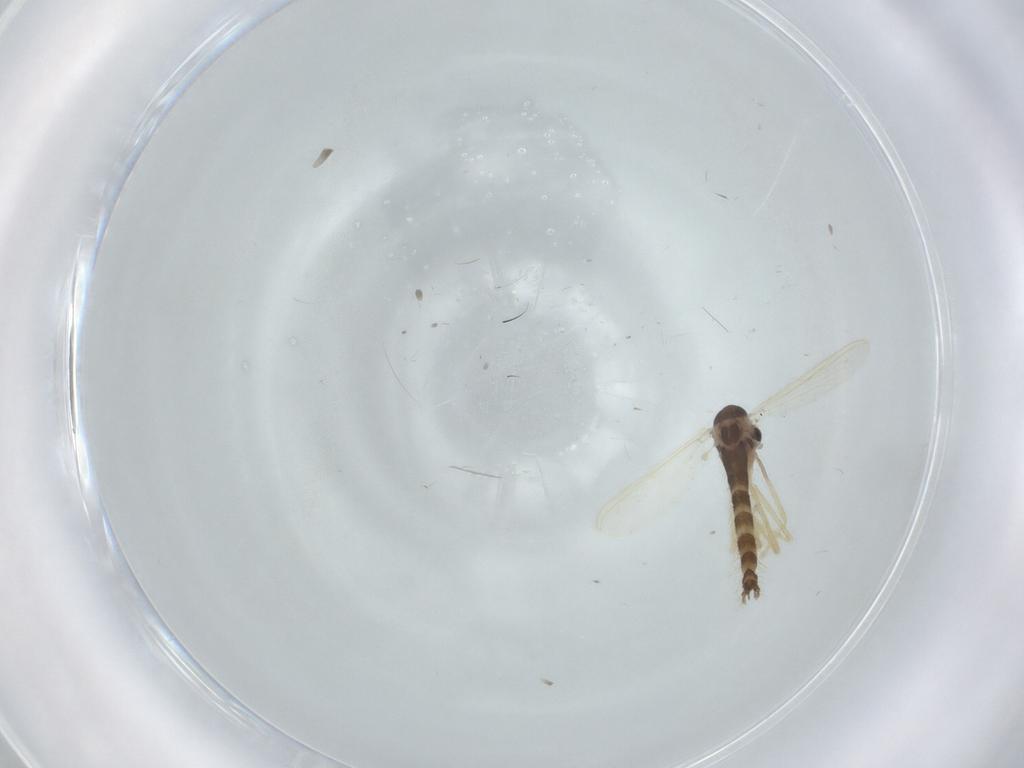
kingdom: Animalia
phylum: Arthropoda
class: Insecta
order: Diptera
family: Chironomidae
